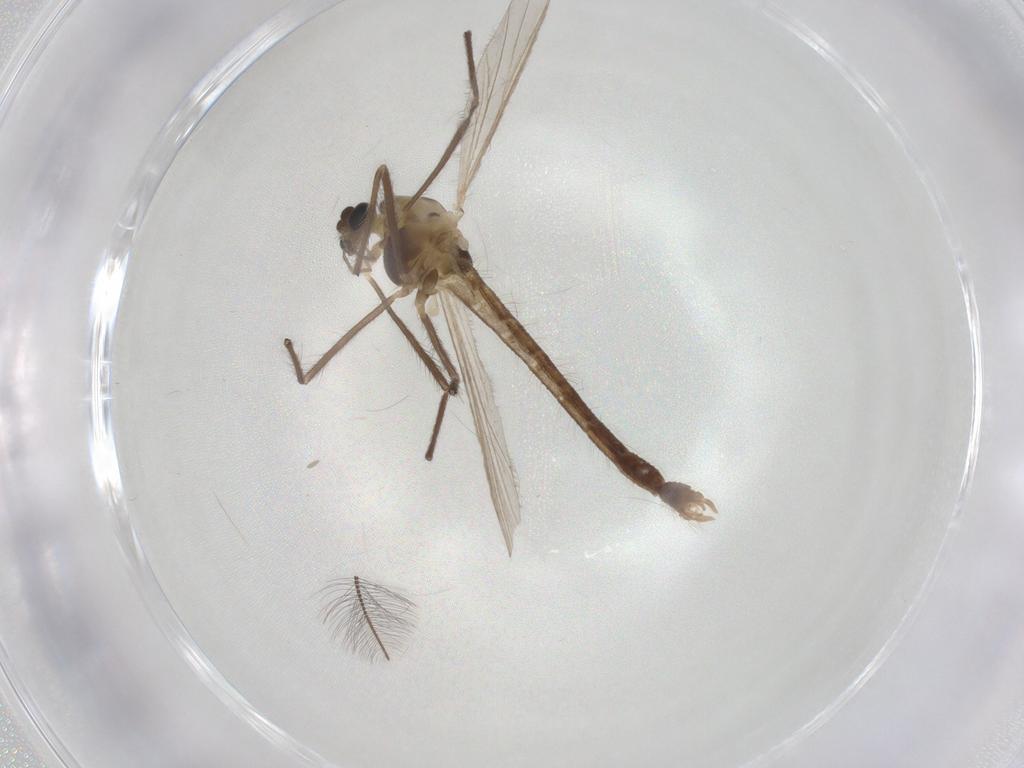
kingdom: Animalia
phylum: Arthropoda
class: Insecta
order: Diptera
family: Chironomidae
